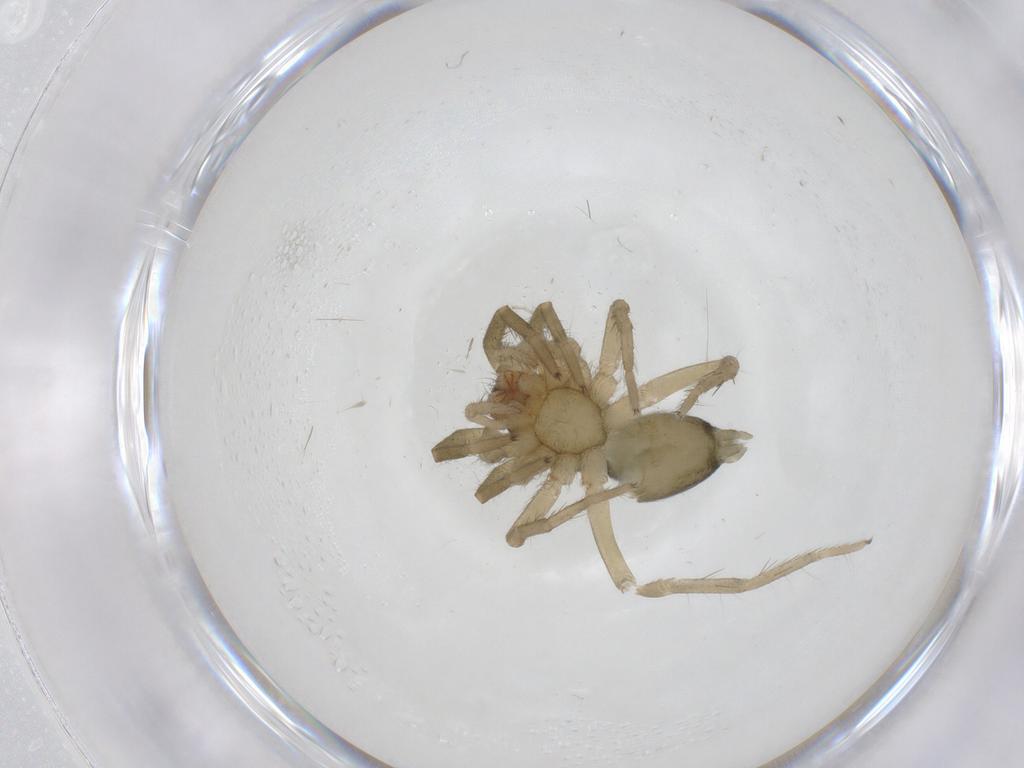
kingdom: Animalia
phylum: Arthropoda
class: Arachnida
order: Araneae
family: Miturgidae
